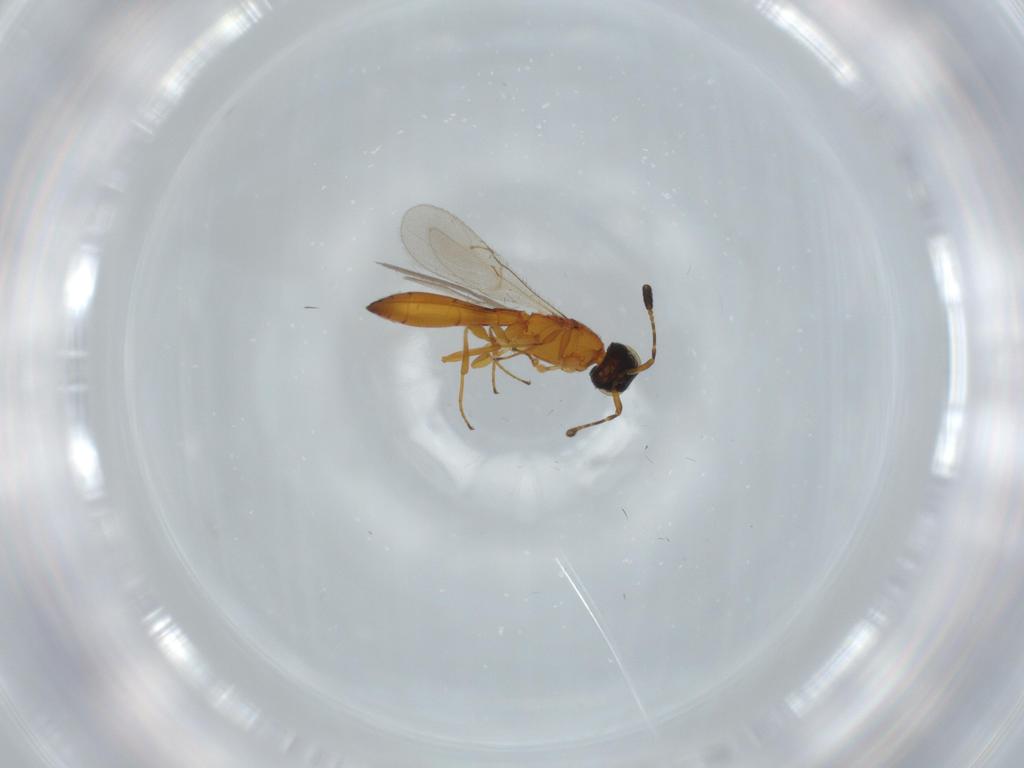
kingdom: Animalia
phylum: Arthropoda
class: Insecta
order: Hymenoptera
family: Scelionidae
